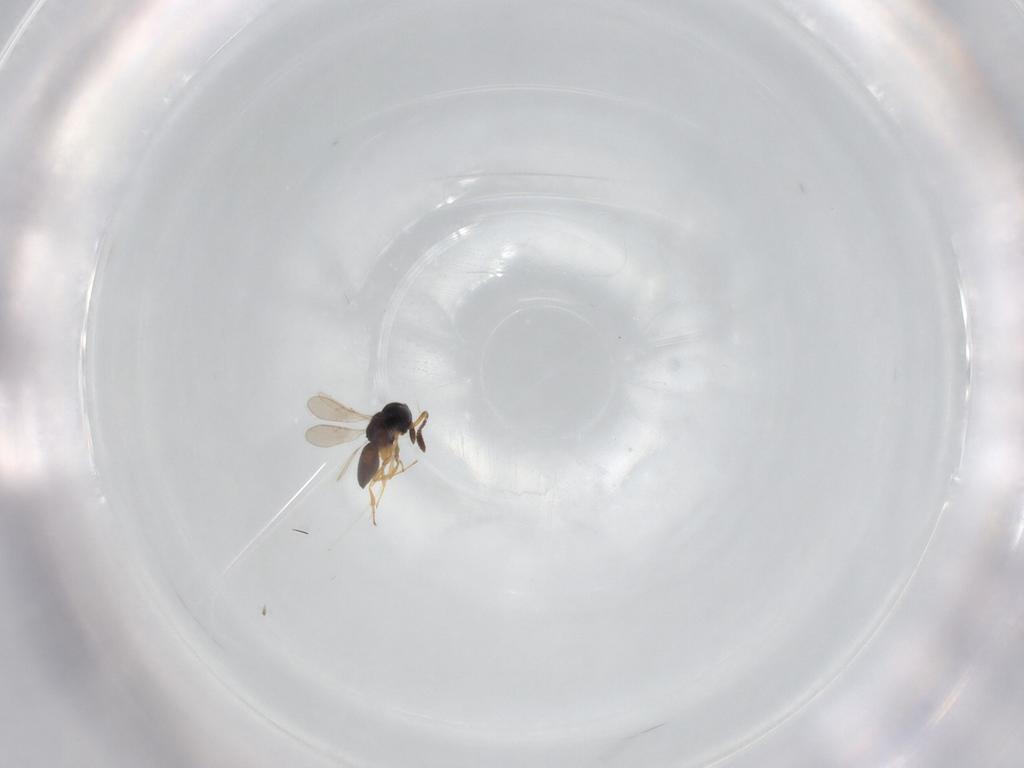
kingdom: Animalia
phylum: Arthropoda
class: Insecta
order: Hymenoptera
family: Scelionidae
